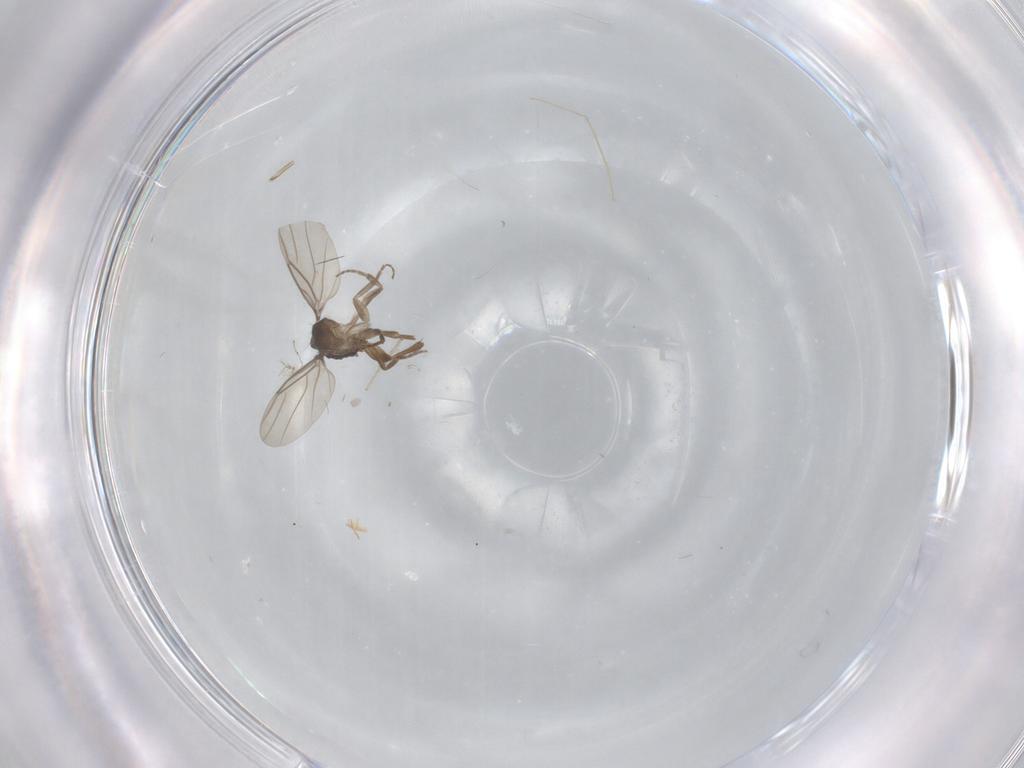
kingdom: Animalia
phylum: Arthropoda
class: Insecta
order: Diptera
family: Phoridae
